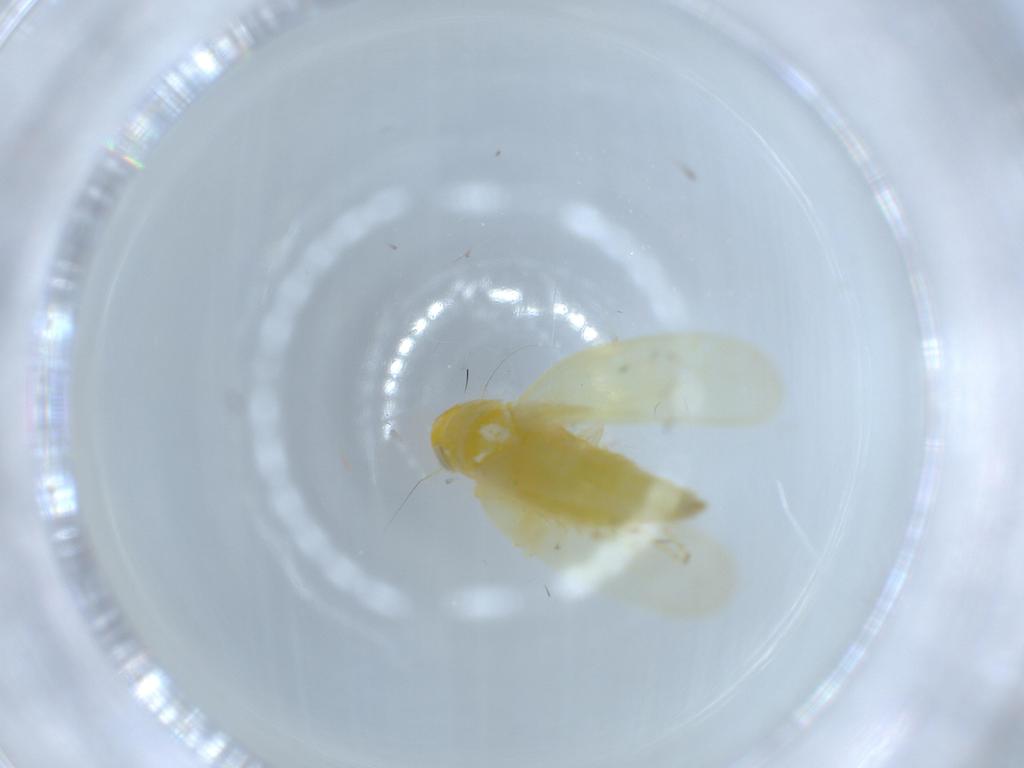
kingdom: Animalia
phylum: Arthropoda
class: Insecta
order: Hemiptera
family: Cicadellidae
